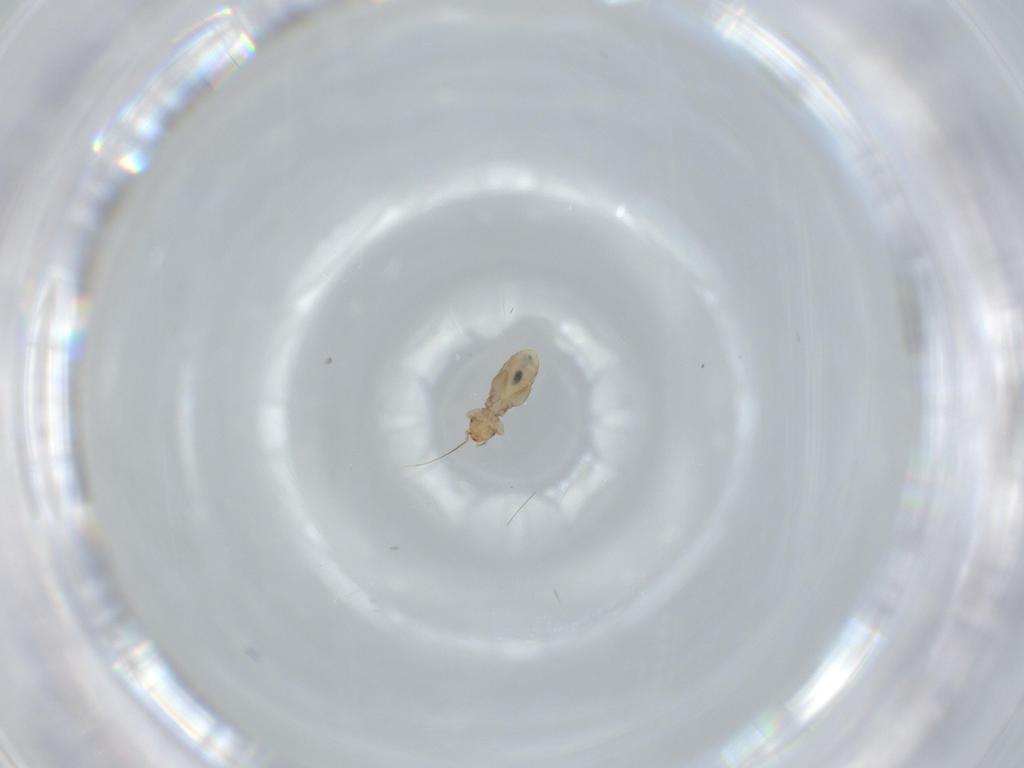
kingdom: Animalia
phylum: Arthropoda
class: Insecta
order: Psocodea
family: Liposcelididae
